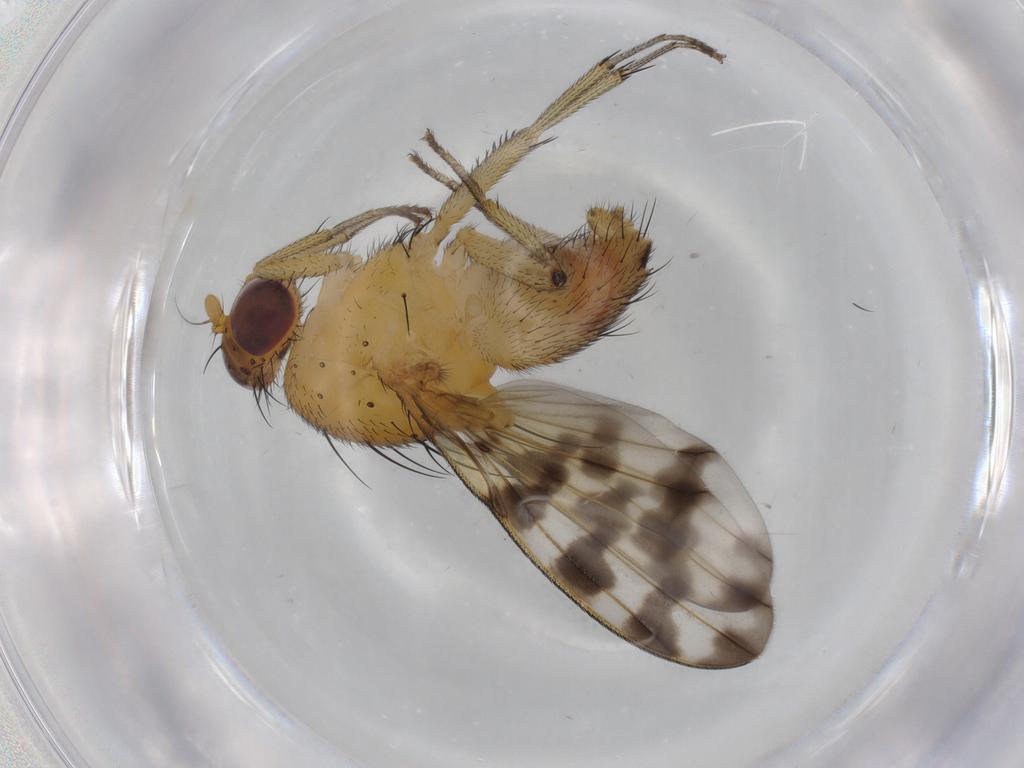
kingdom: Animalia
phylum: Arthropoda
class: Insecta
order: Diptera
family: Cecidomyiidae
